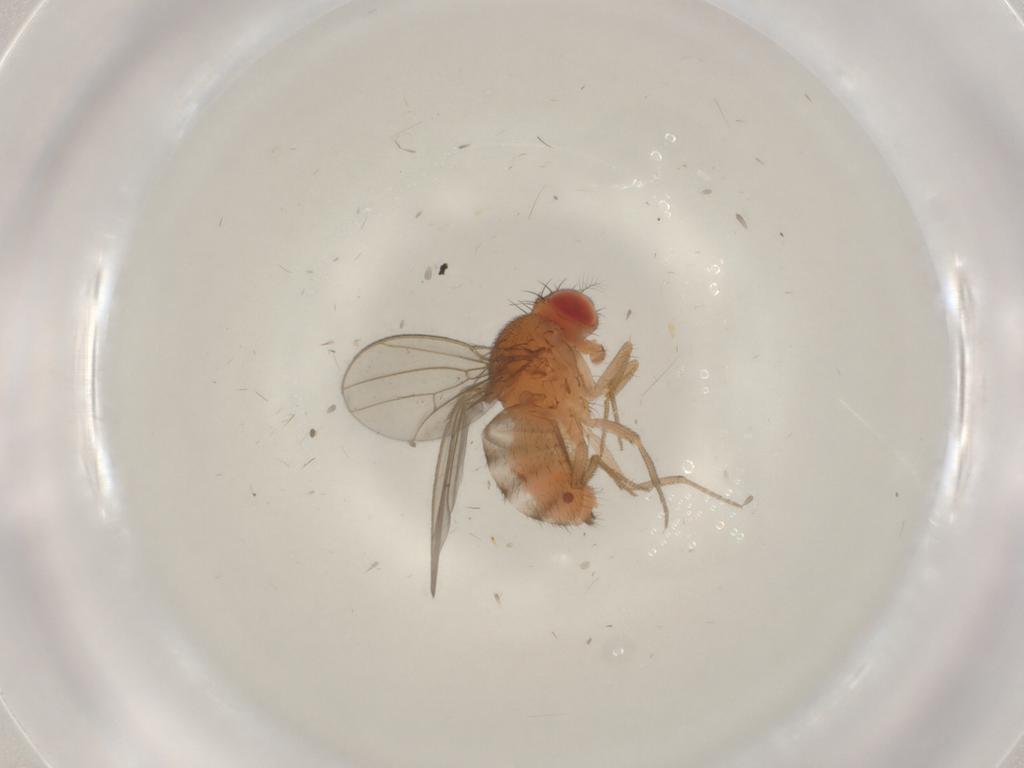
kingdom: Animalia
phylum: Arthropoda
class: Insecta
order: Diptera
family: Drosophilidae
